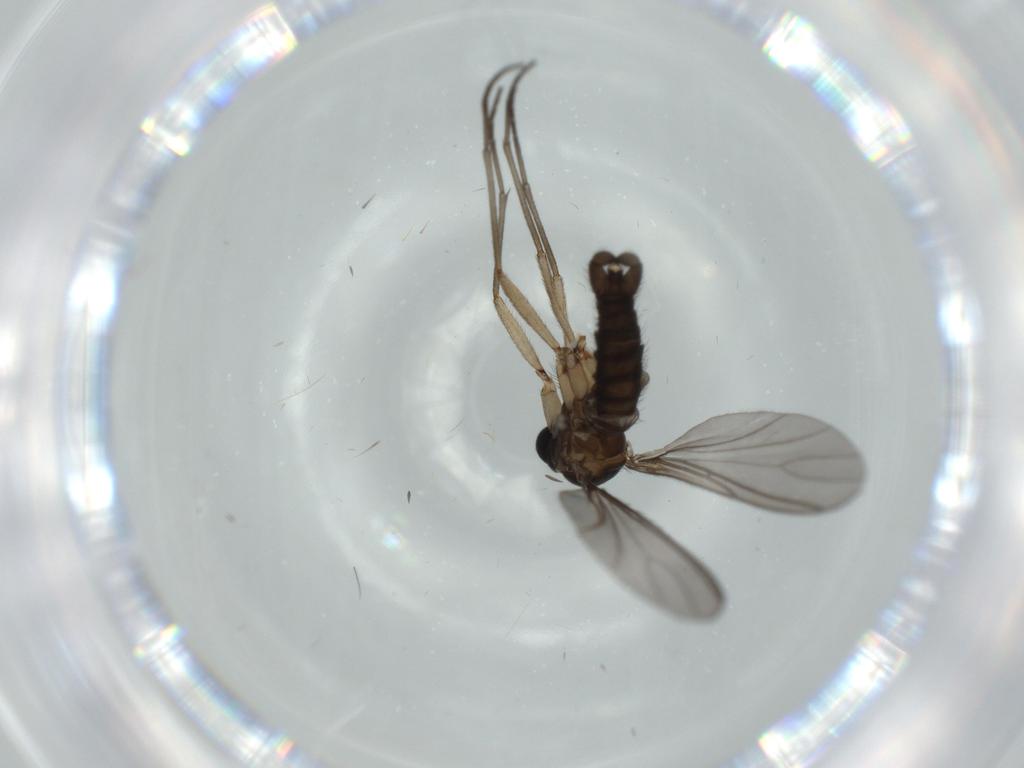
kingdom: Animalia
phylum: Arthropoda
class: Insecta
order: Diptera
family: Sciaridae
